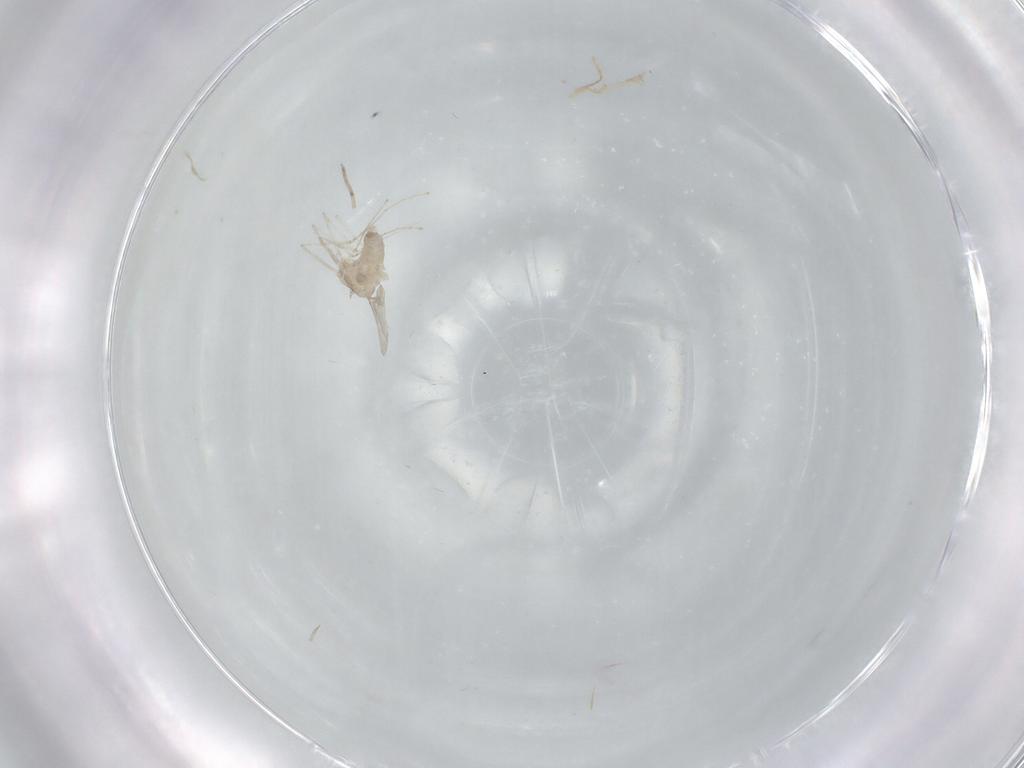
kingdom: Animalia
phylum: Arthropoda
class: Insecta
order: Diptera
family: Cecidomyiidae
